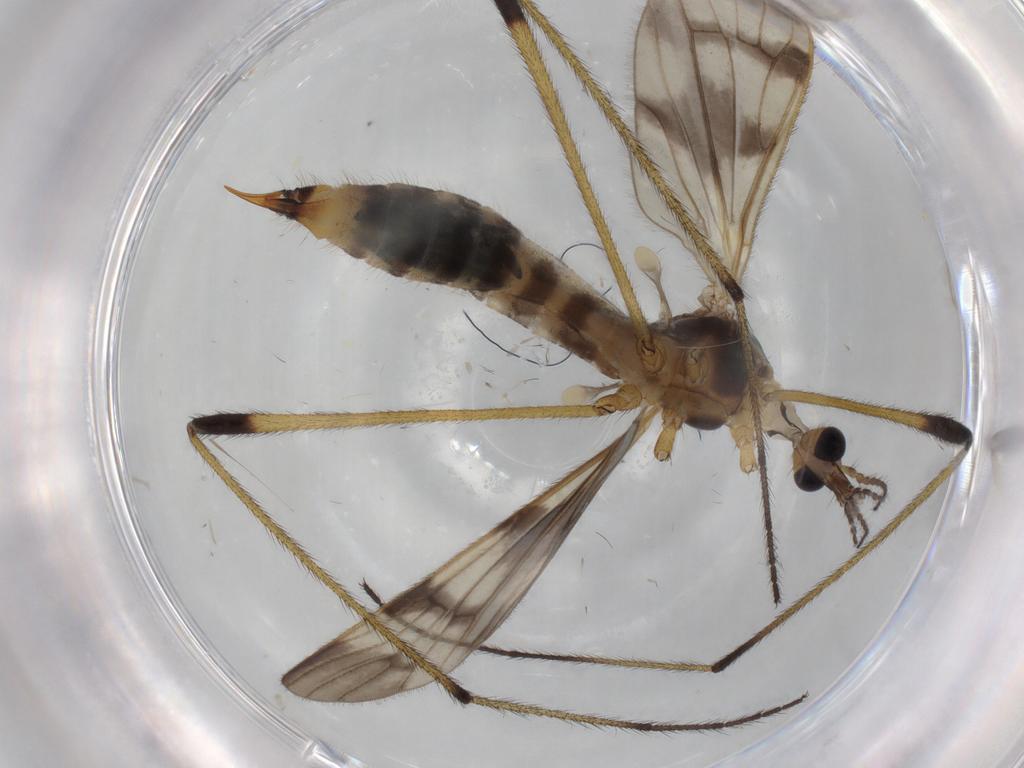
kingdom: Animalia
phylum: Arthropoda
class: Insecta
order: Diptera
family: Limoniidae
